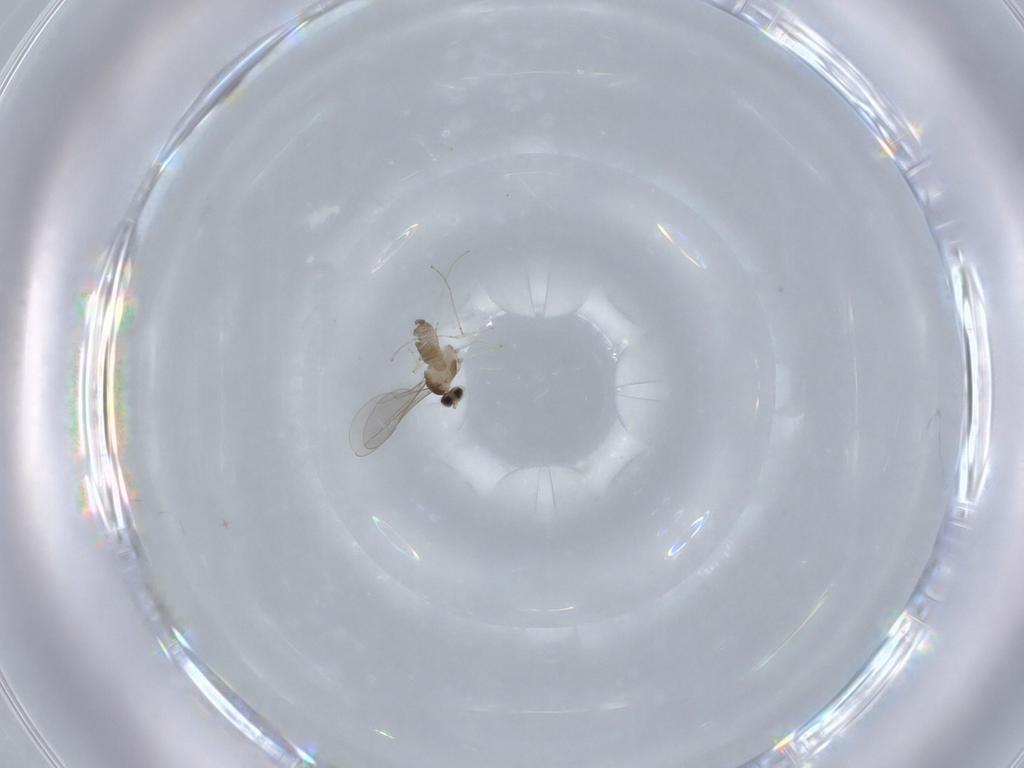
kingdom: Animalia
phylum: Arthropoda
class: Insecta
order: Diptera
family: Cecidomyiidae
